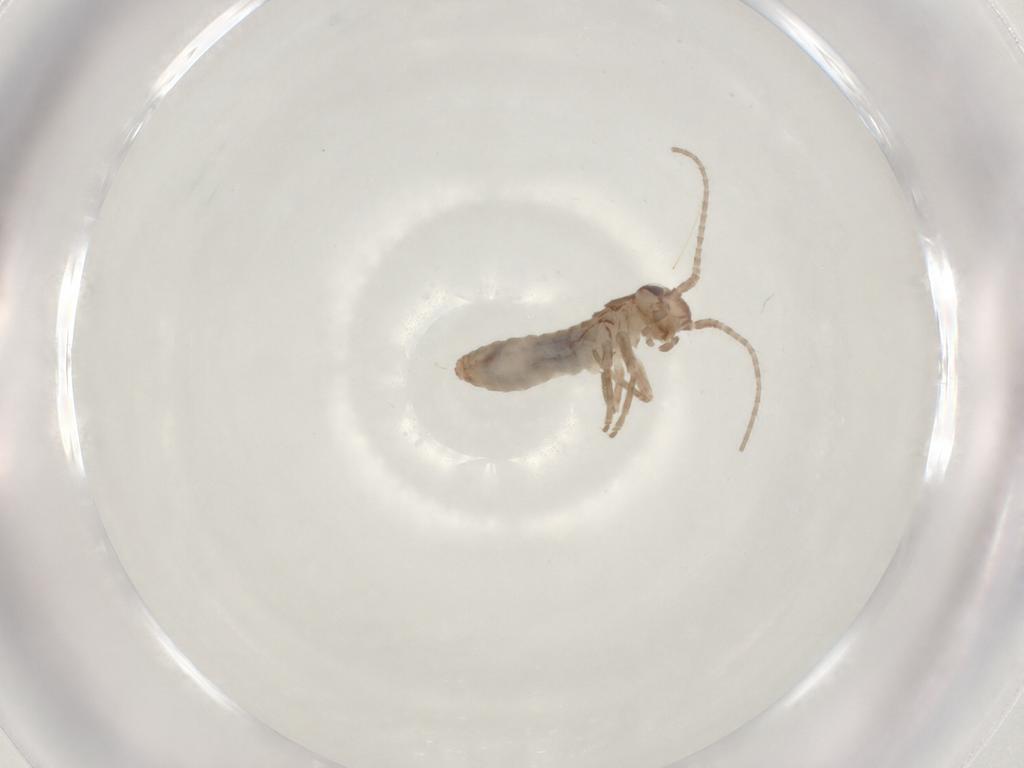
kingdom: Animalia
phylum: Arthropoda
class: Insecta
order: Orthoptera
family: Mogoplistidae
